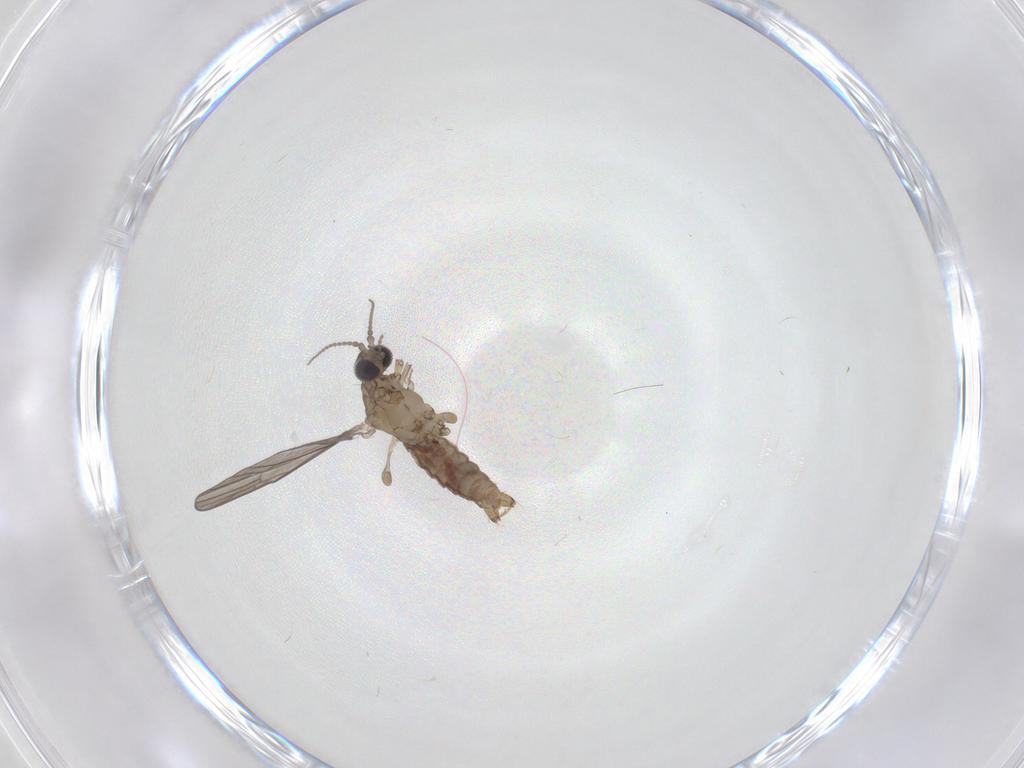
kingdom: Animalia
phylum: Arthropoda
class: Insecta
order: Diptera
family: Limoniidae
